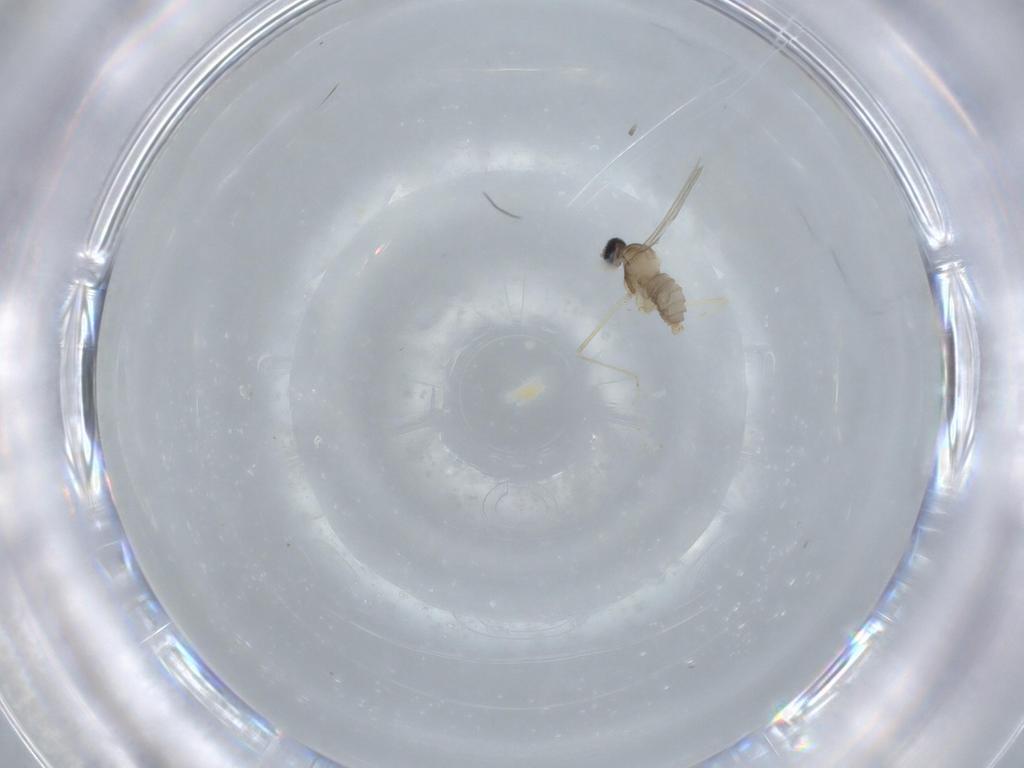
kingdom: Animalia
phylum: Arthropoda
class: Insecta
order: Diptera
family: Cecidomyiidae
